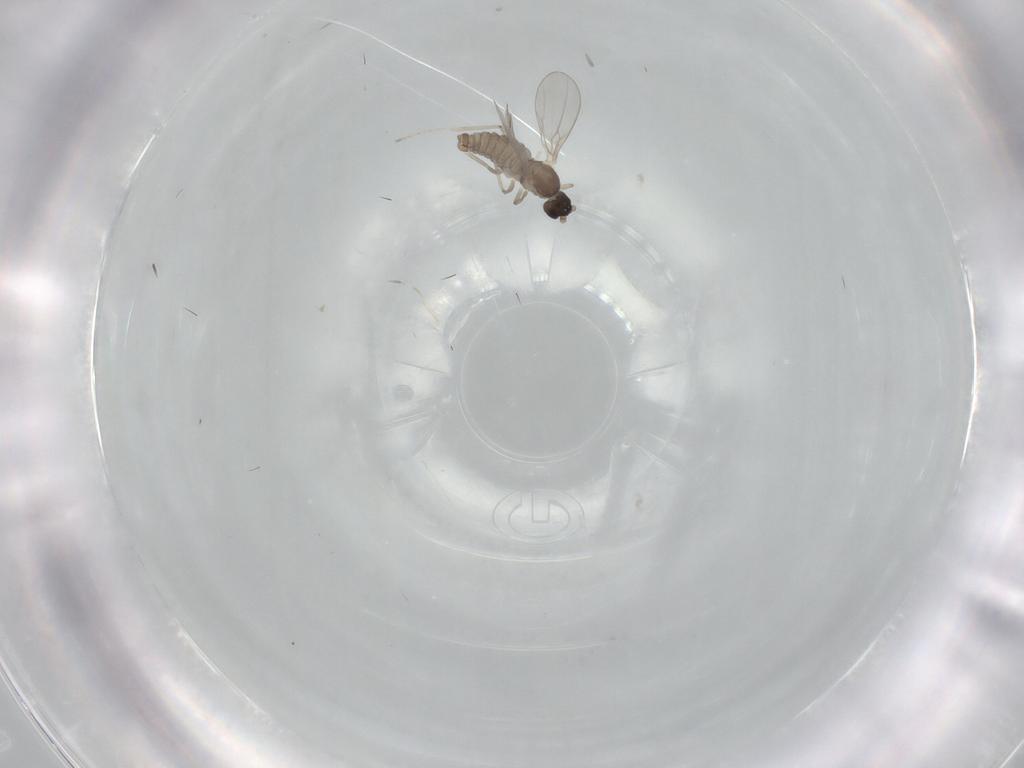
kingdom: Animalia
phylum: Arthropoda
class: Insecta
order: Diptera
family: Cecidomyiidae
